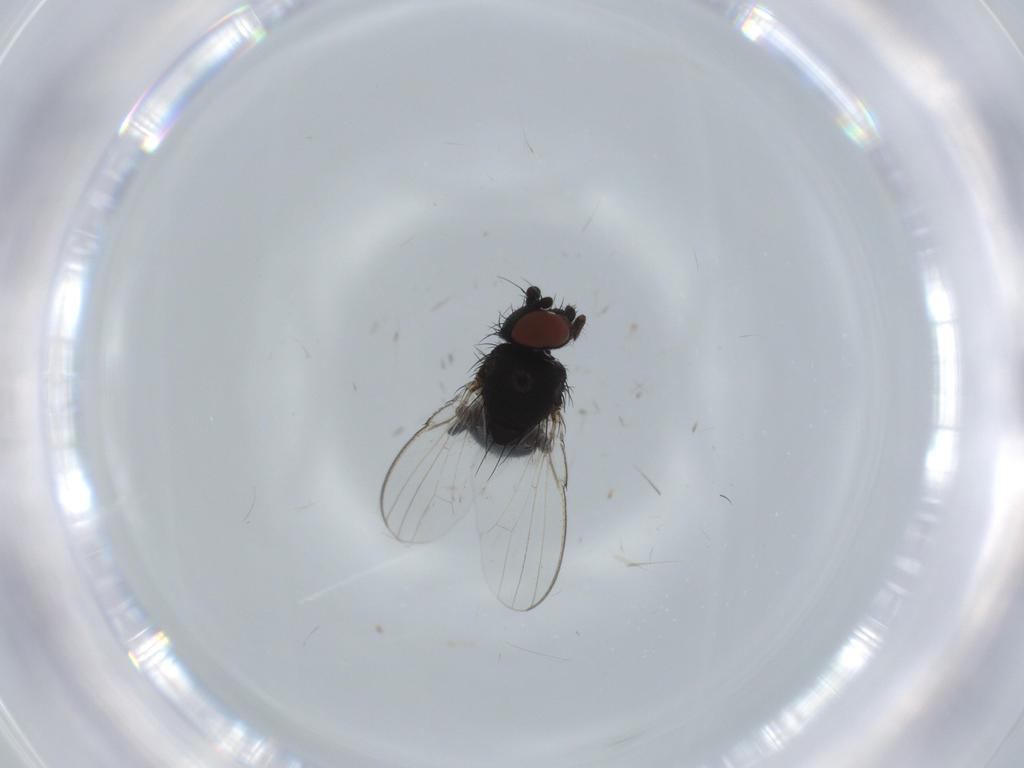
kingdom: Animalia
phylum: Arthropoda
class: Insecta
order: Diptera
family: Milichiidae
